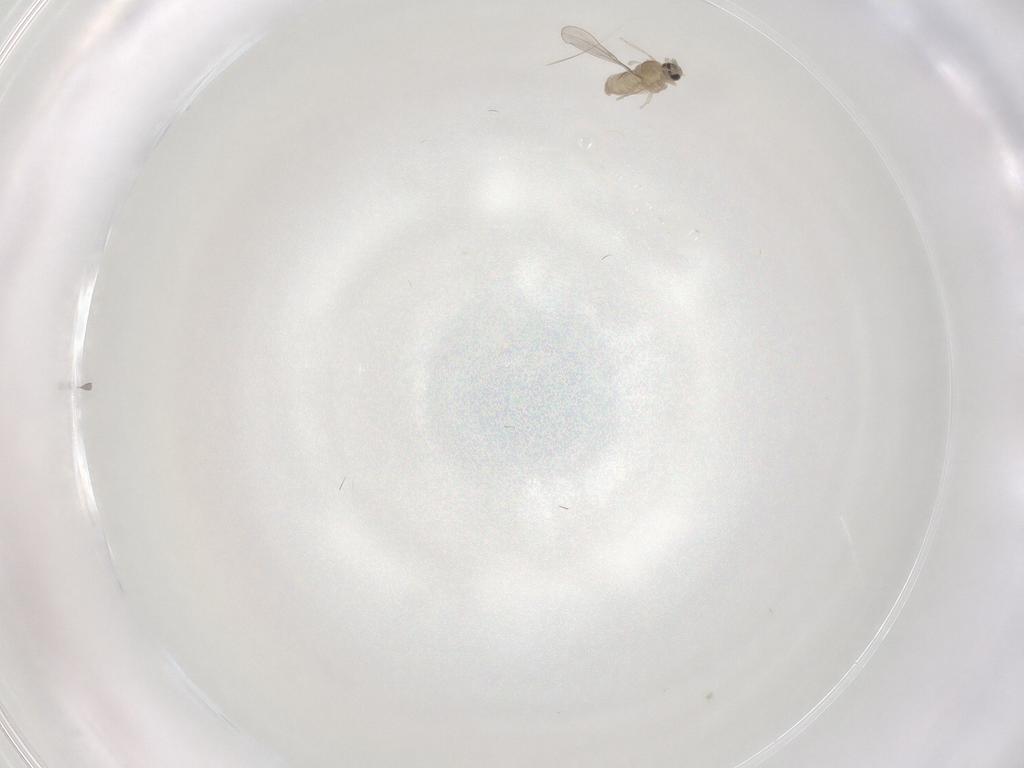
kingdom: Animalia
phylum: Arthropoda
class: Insecta
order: Diptera
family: Cecidomyiidae
